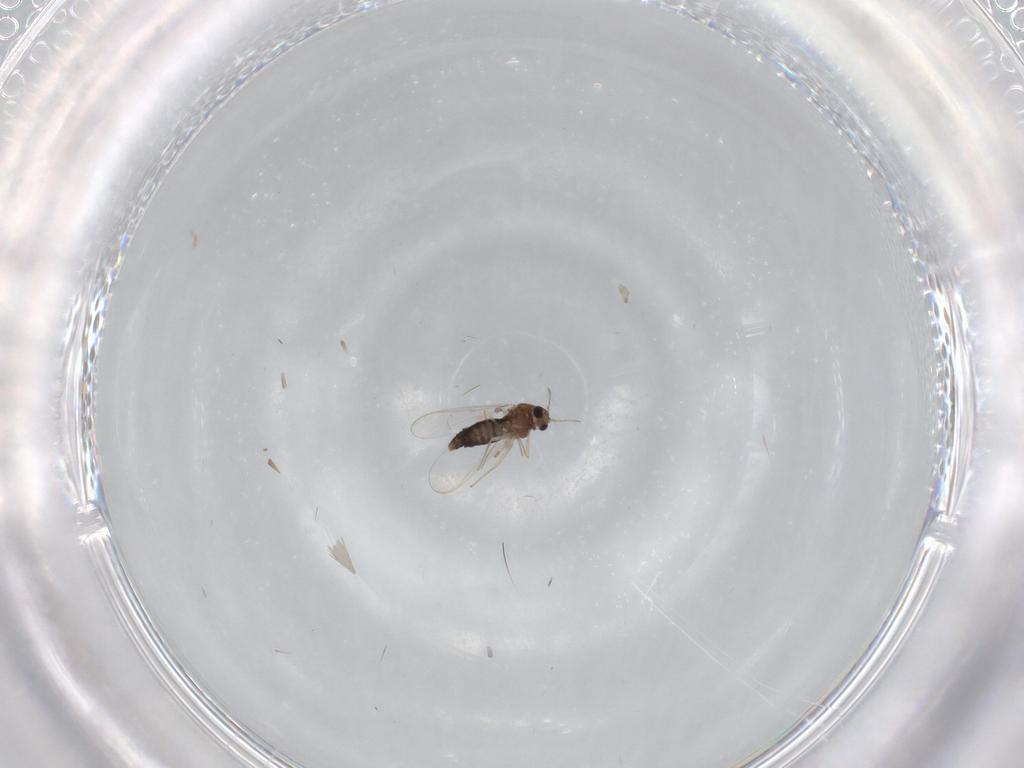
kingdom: Animalia
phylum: Arthropoda
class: Insecta
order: Diptera
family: Chironomidae
